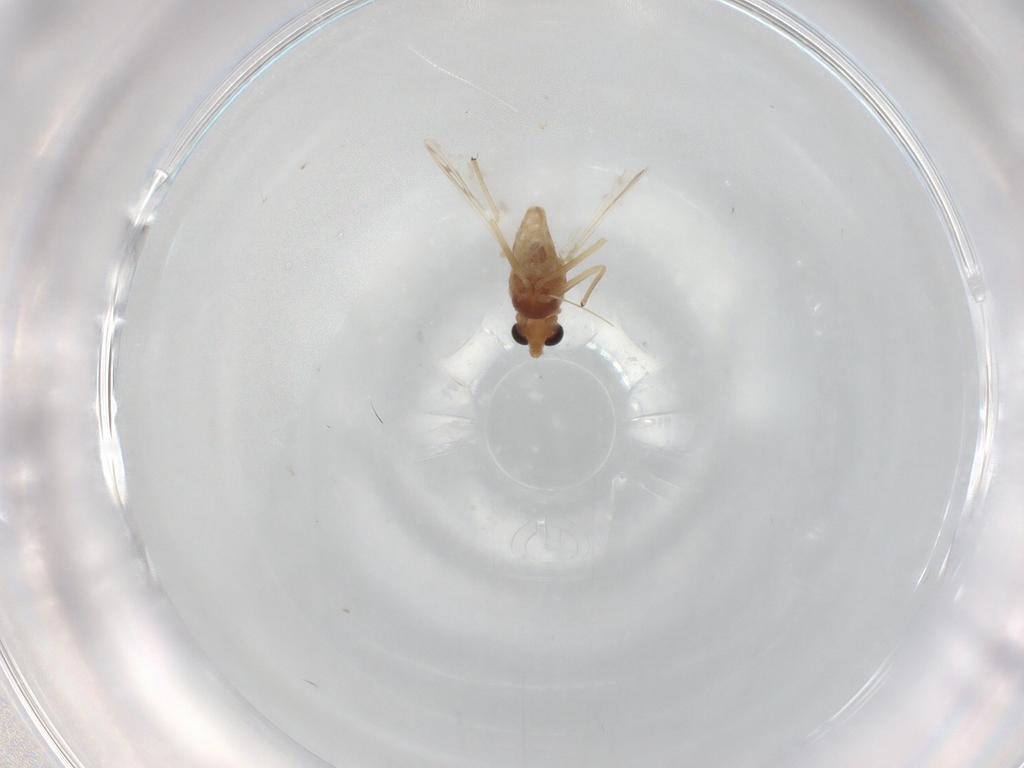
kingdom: Animalia
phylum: Arthropoda
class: Insecta
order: Diptera
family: Chironomidae
